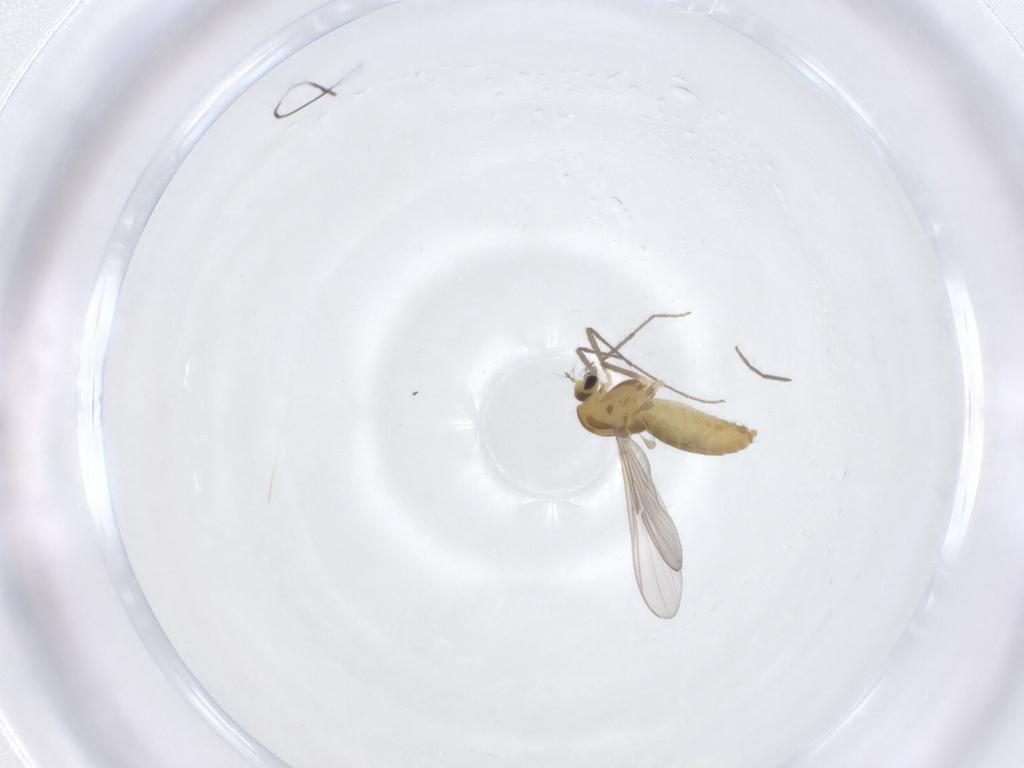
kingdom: Animalia
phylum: Arthropoda
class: Insecta
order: Diptera
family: Chironomidae
